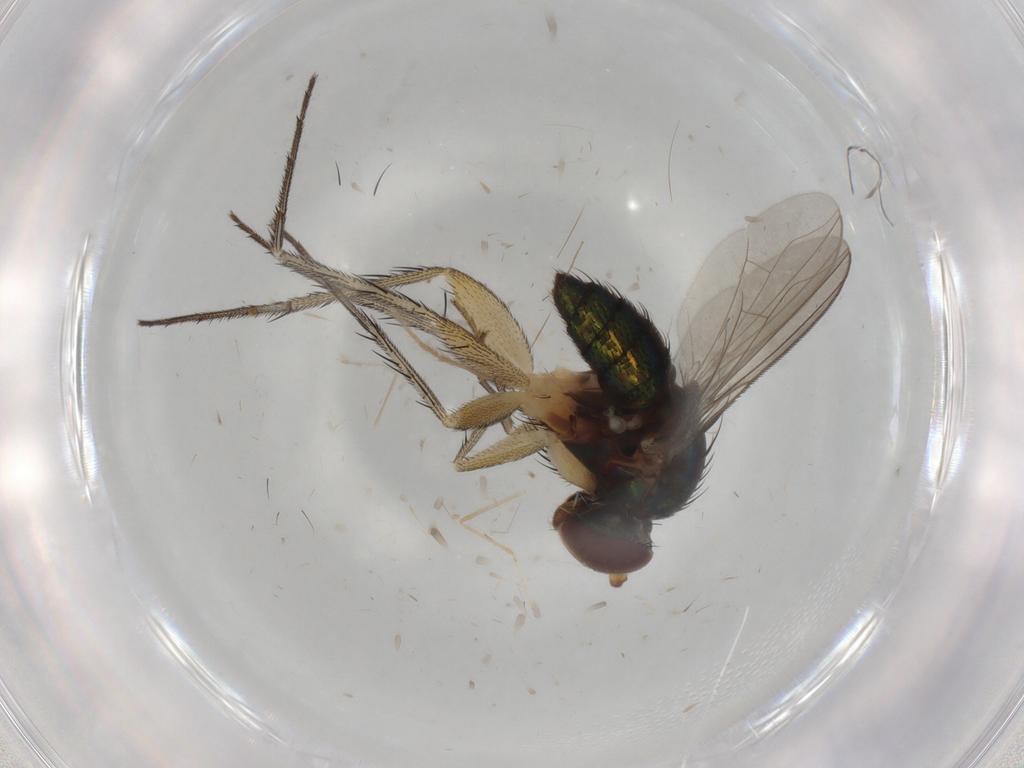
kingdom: Animalia
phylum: Arthropoda
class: Insecta
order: Diptera
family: Dolichopodidae
